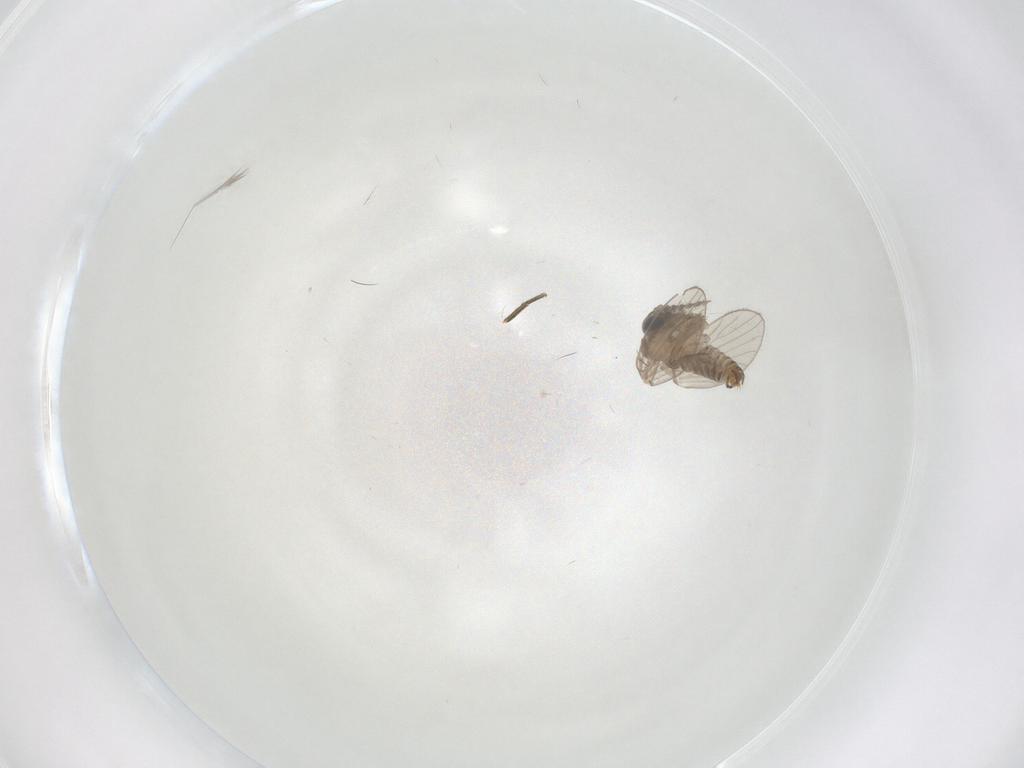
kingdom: Animalia
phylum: Arthropoda
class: Insecta
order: Diptera
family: Psychodidae
